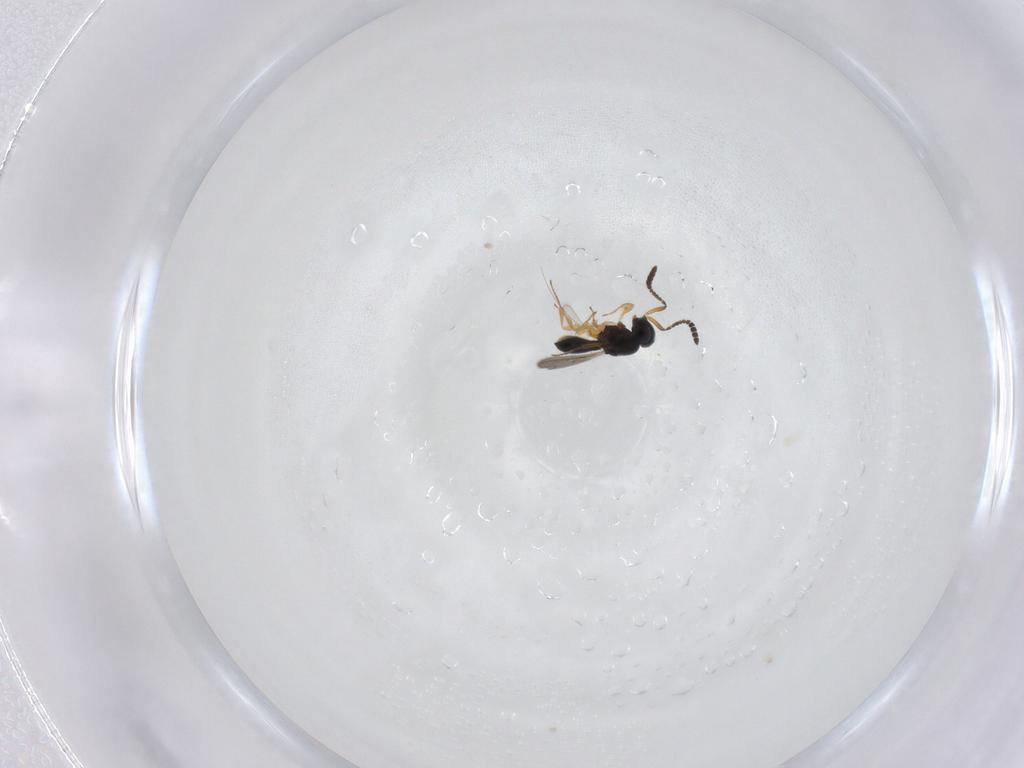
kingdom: Animalia
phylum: Arthropoda
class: Insecta
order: Hymenoptera
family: Scelionidae
